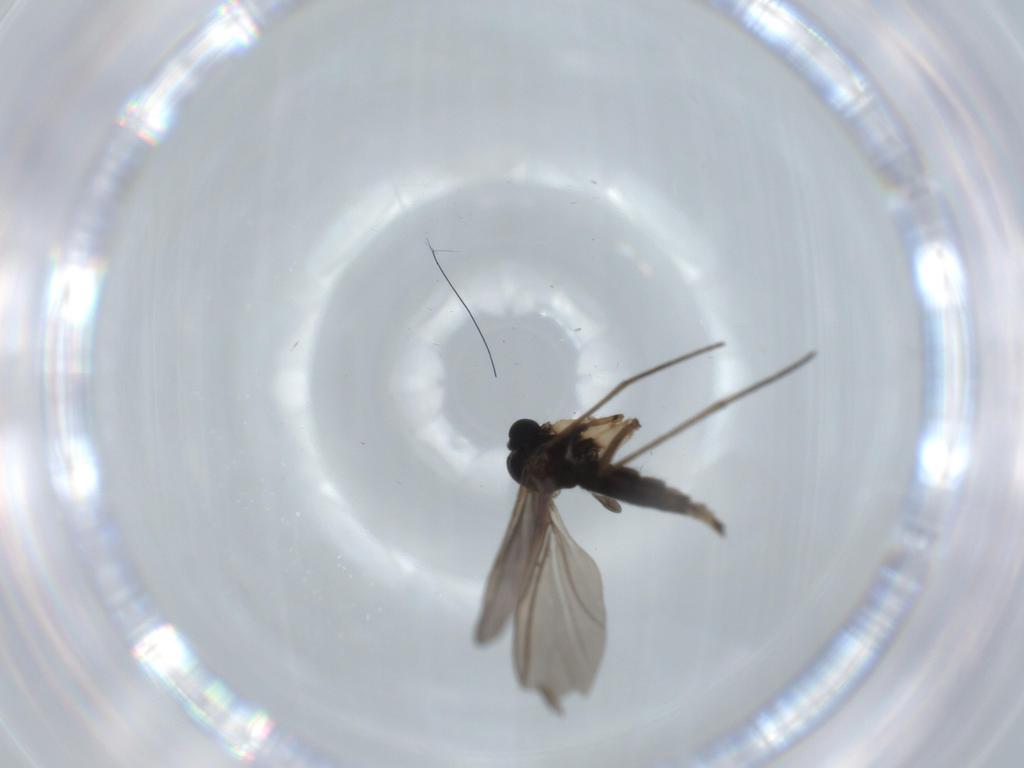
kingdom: Animalia
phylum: Arthropoda
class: Insecta
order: Diptera
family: Sciaridae
